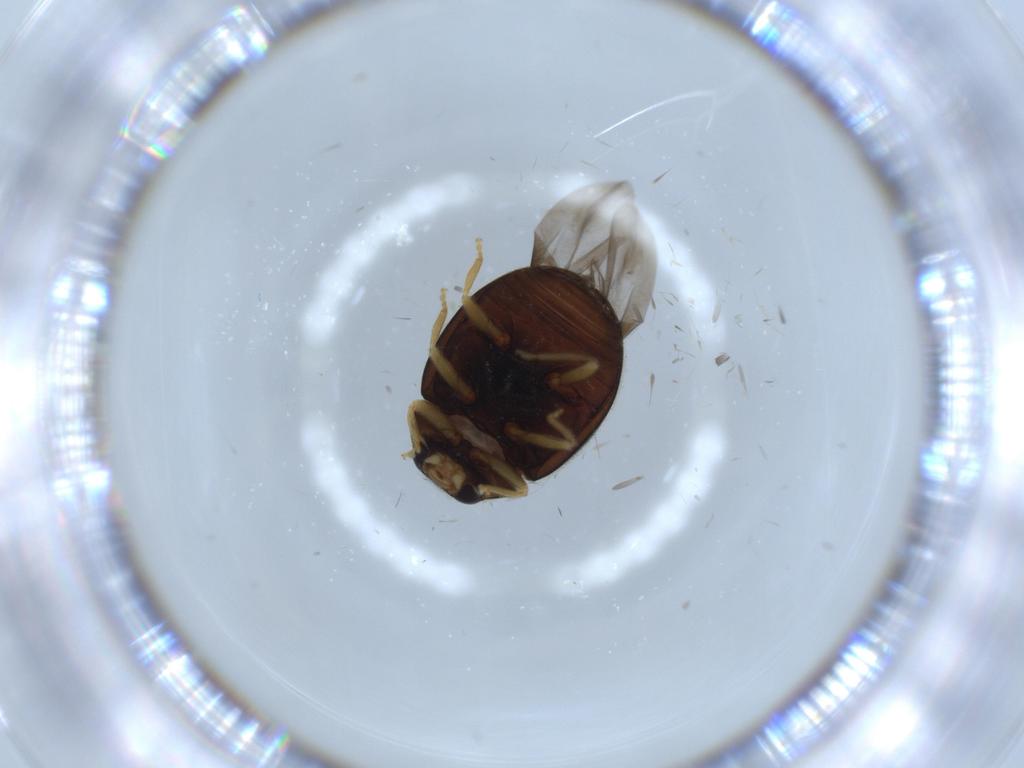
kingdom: Animalia
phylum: Arthropoda
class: Insecta
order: Coleoptera
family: Coccinellidae
